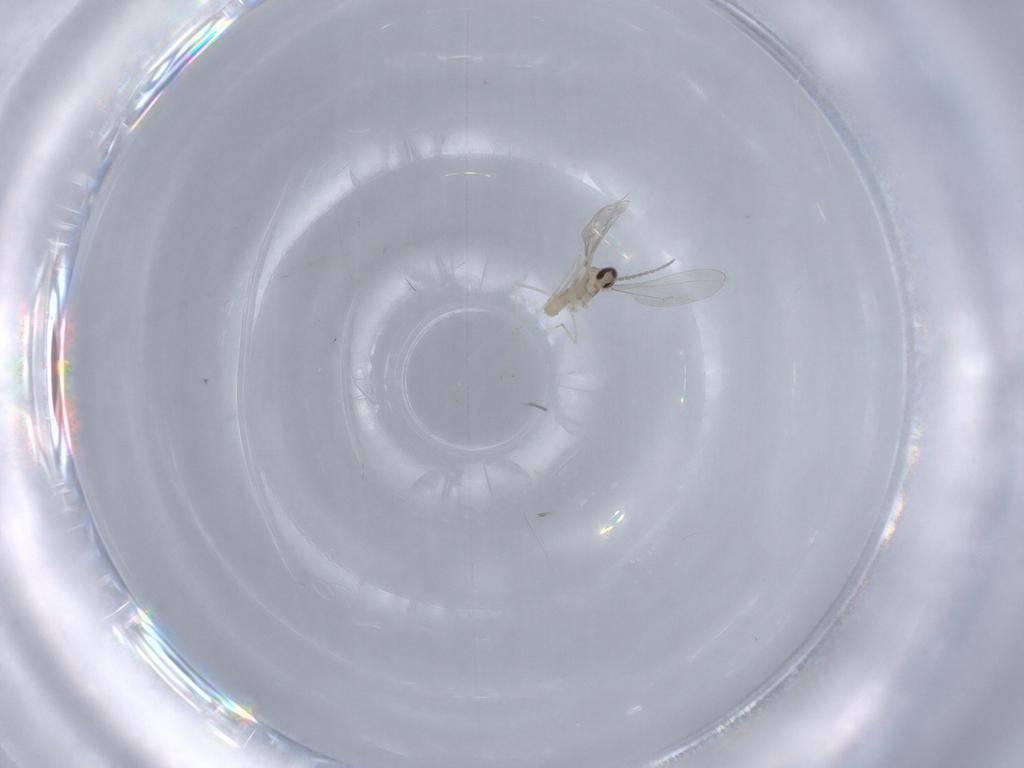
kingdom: Animalia
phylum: Arthropoda
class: Insecta
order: Diptera
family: Cecidomyiidae
